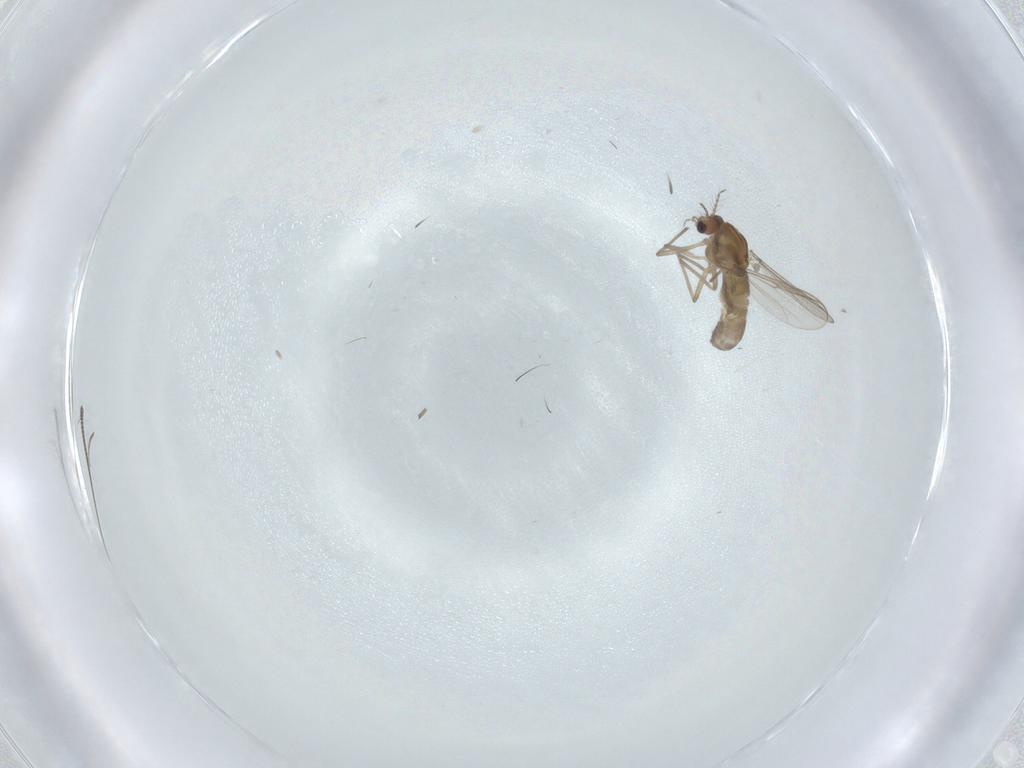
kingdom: Animalia
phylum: Arthropoda
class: Insecta
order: Diptera
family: Chironomidae
